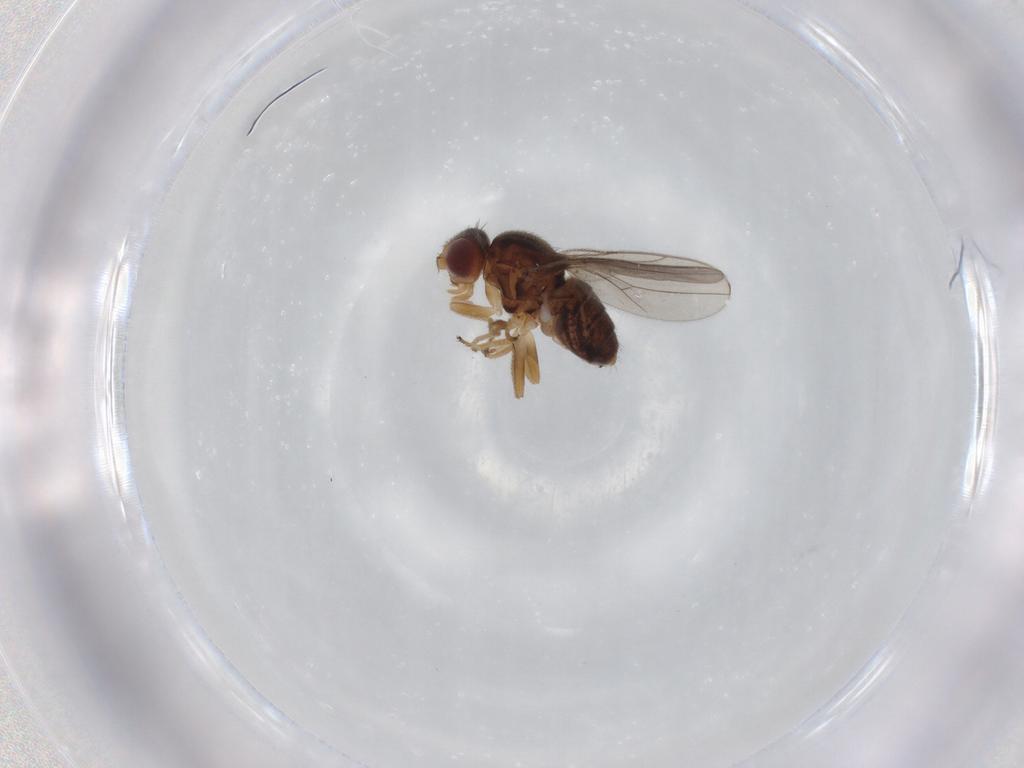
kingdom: Animalia
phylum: Arthropoda
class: Insecta
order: Diptera
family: Chloropidae
